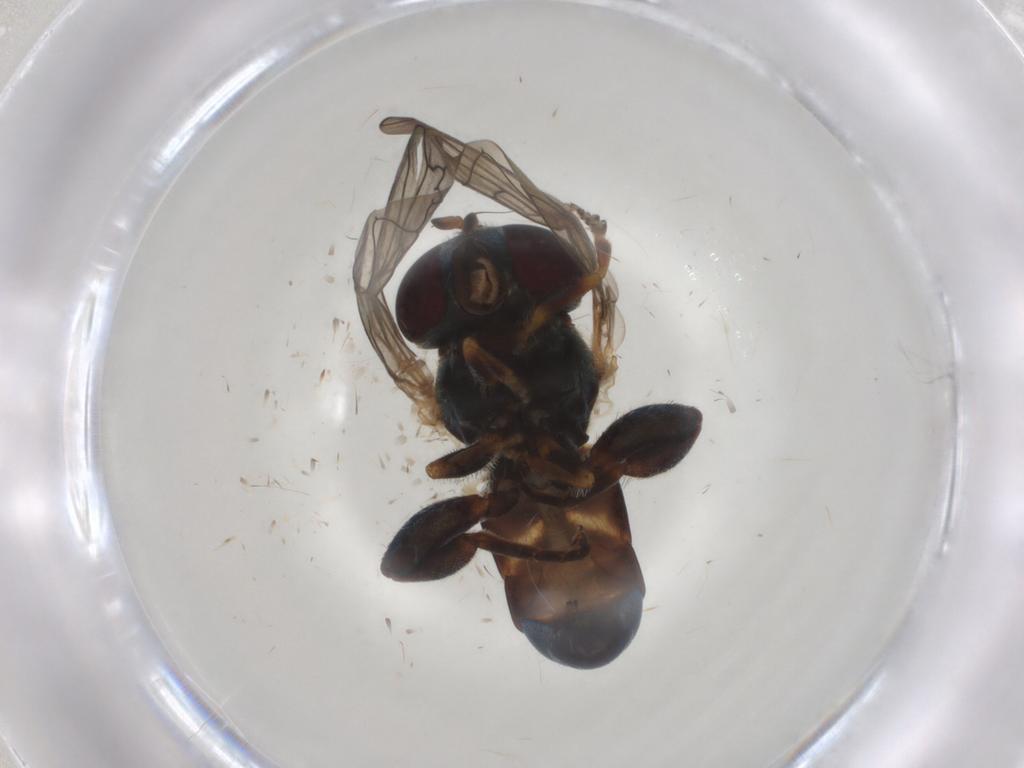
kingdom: Animalia
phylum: Arthropoda
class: Insecta
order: Diptera
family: Syrphidae
